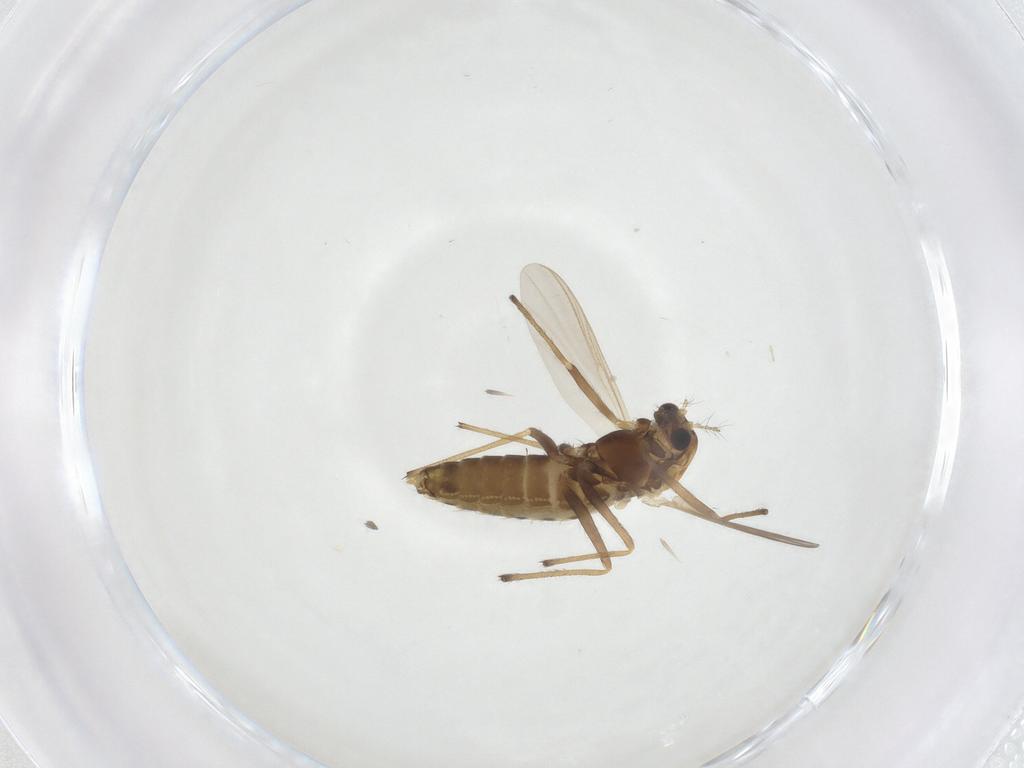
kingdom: Animalia
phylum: Arthropoda
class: Insecta
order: Diptera
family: Chironomidae
